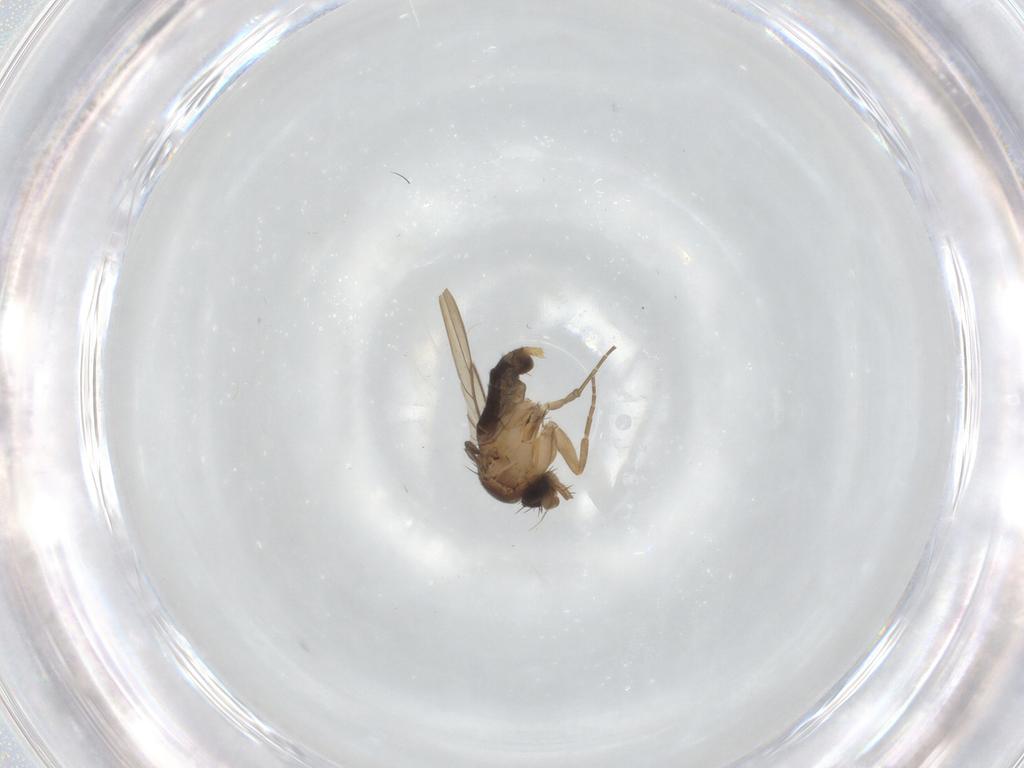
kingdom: Animalia
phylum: Arthropoda
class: Insecta
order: Diptera
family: Phoridae
